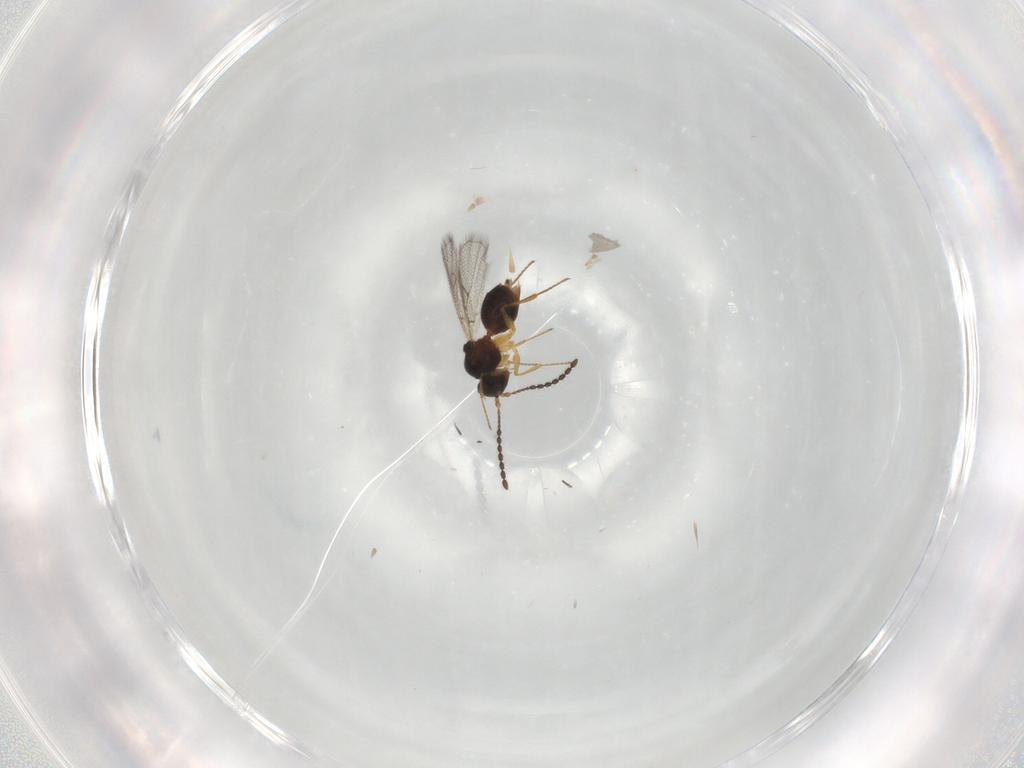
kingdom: Animalia
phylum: Arthropoda
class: Insecta
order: Hymenoptera
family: Figitidae
